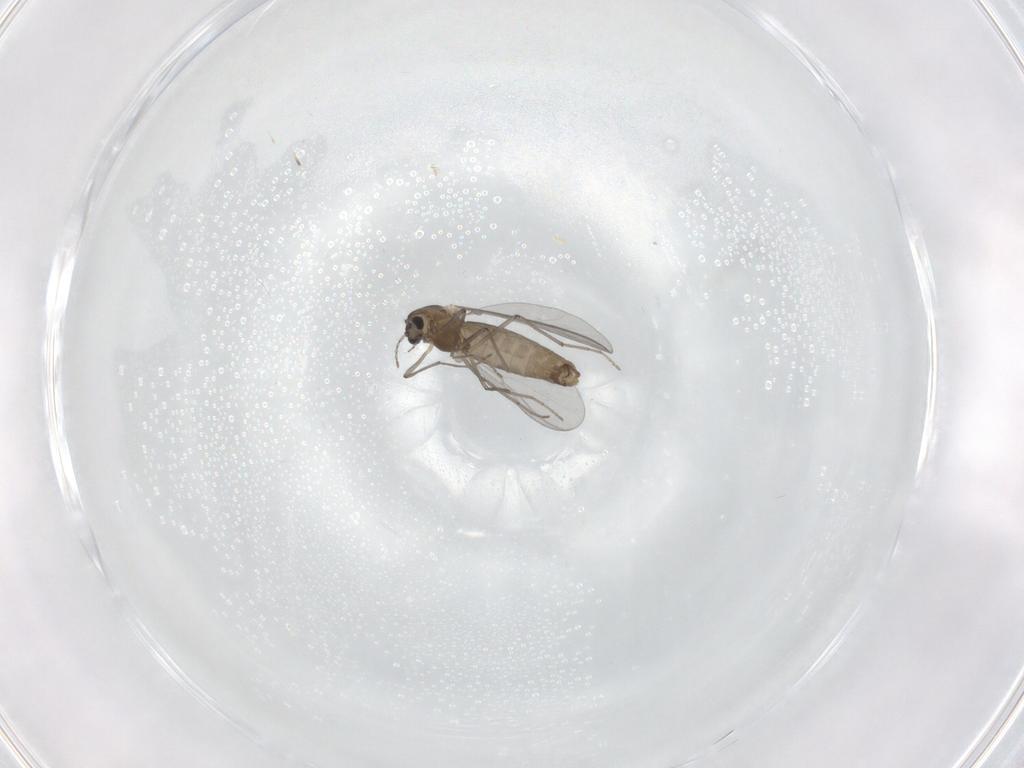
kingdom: Animalia
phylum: Arthropoda
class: Insecta
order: Diptera
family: Chironomidae
